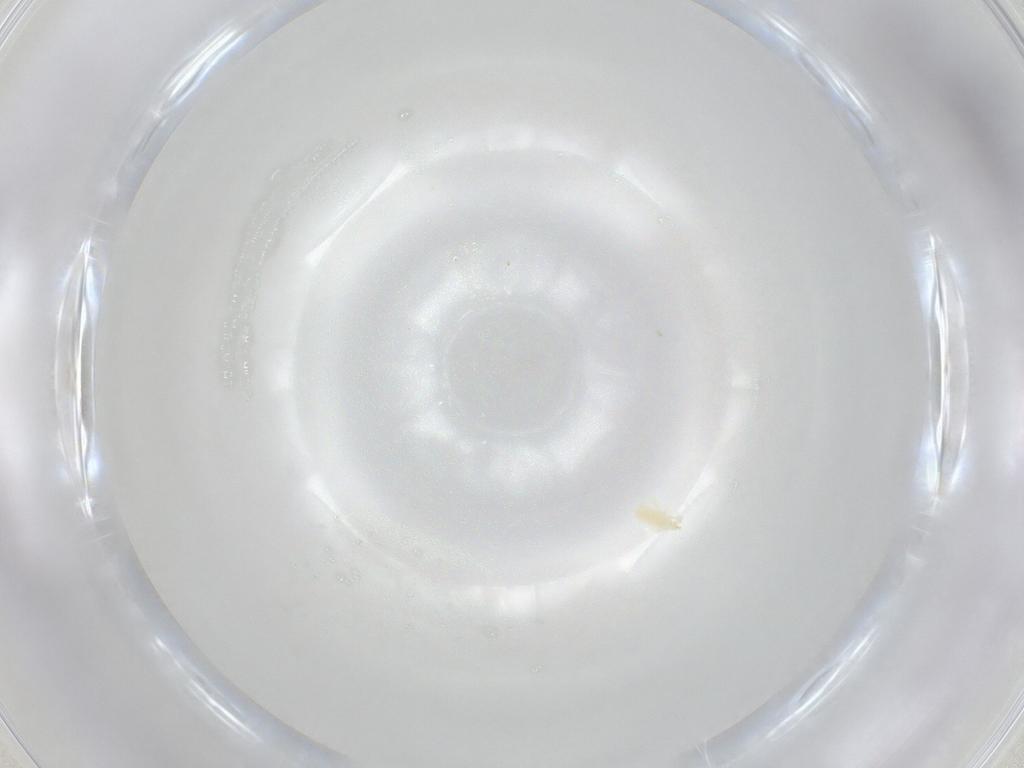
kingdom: Animalia
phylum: Arthropoda
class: Arachnida
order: Trombidiformes
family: Erythraeidae
